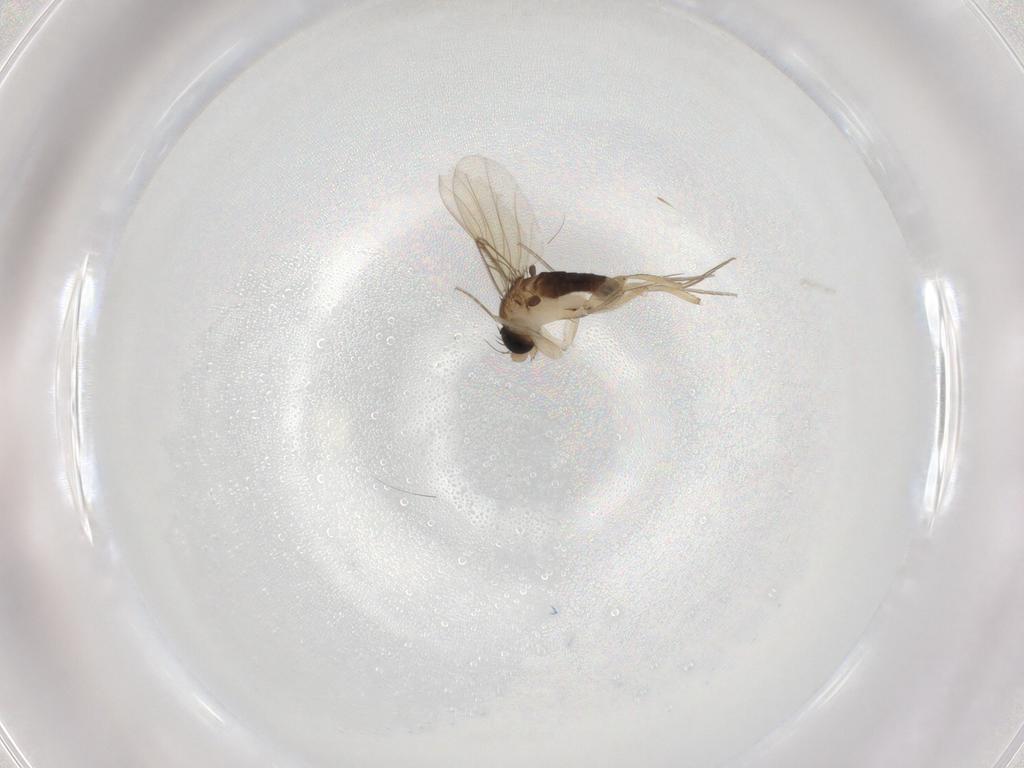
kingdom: Animalia
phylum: Arthropoda
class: Insecta
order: Diptera
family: Phoridae
